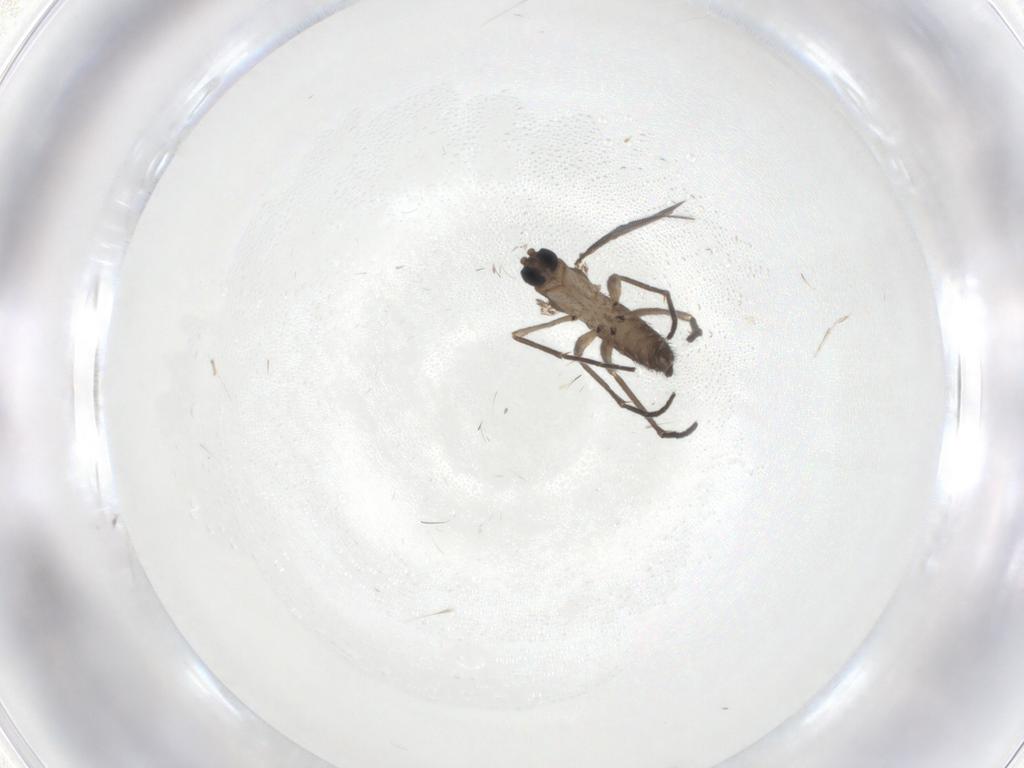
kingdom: Animalia
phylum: Arthropoda
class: Insecta
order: Diptera
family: Sciaridae
